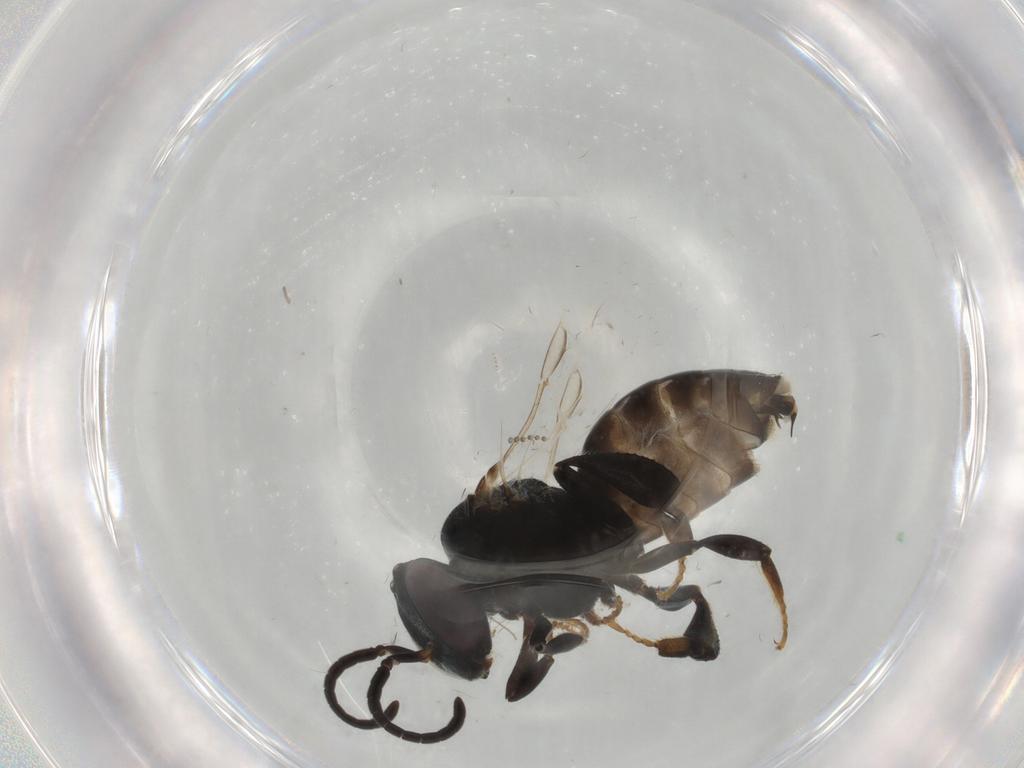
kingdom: Animalia
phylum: Arthropoda
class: Insecta
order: Hymenoptera
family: Apidae
